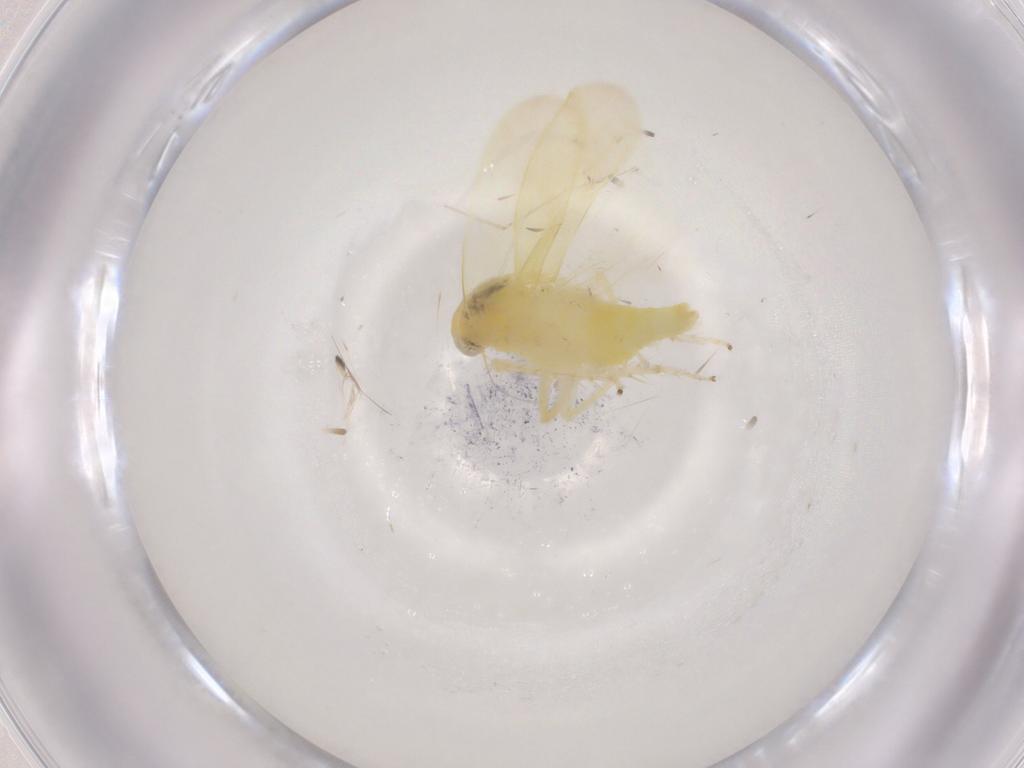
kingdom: Animalia
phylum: Arthropoda
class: Insecta
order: Hemiptera
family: Cicadellidae
